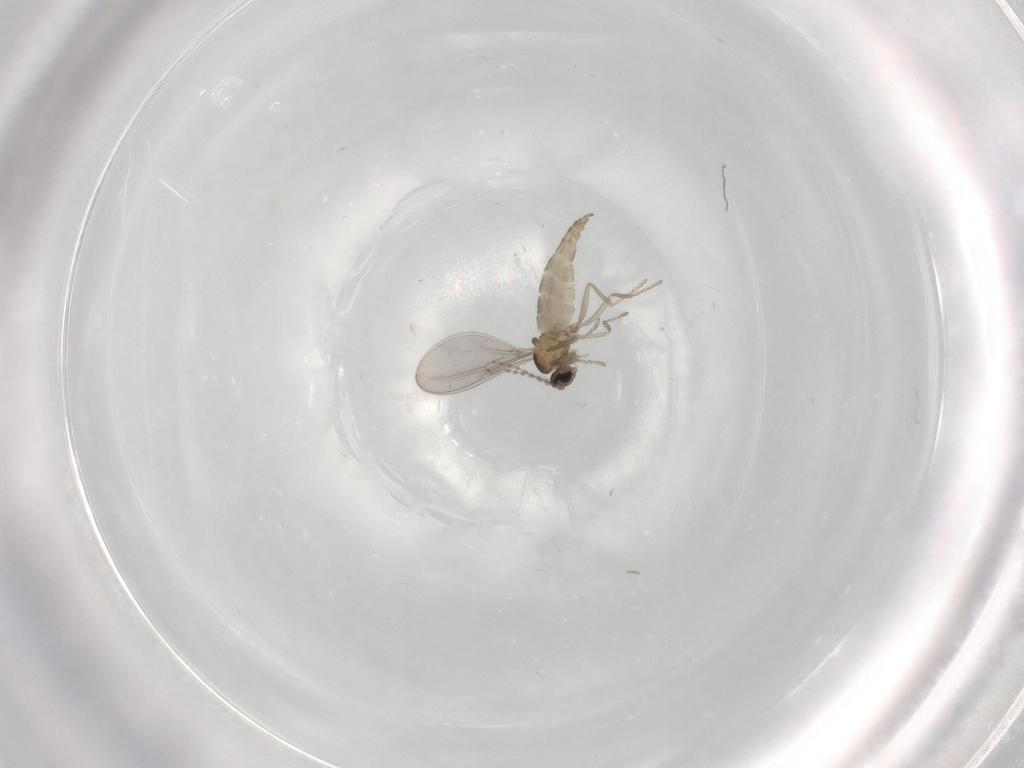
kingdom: Animalia
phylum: Arthropoda
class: Insecta
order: Diptera
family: Cecidomyiidae
